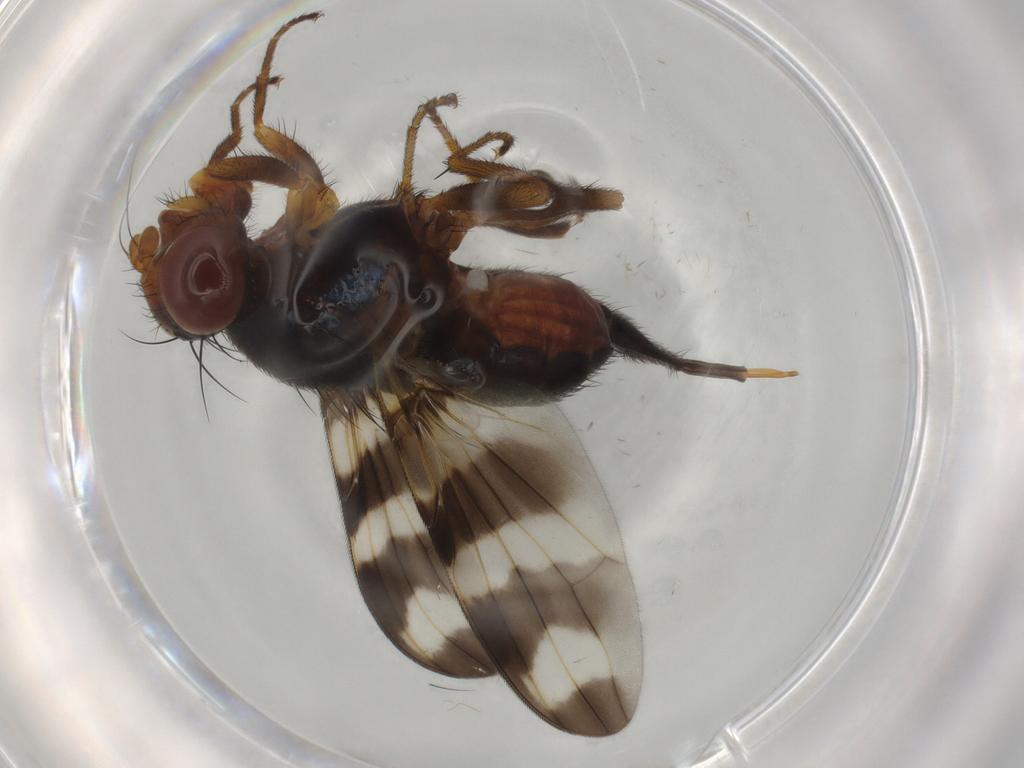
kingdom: Animalia
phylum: Arthropoda
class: Insecta
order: Diptera
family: Ulidiidae
